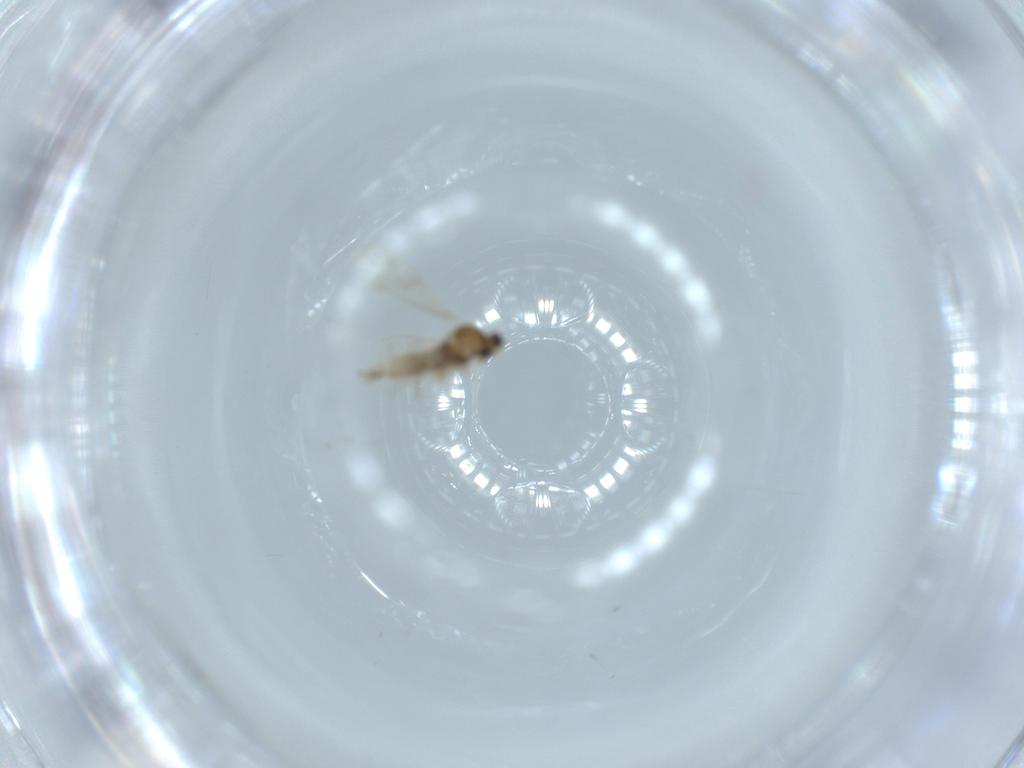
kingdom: Animalia
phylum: Arthropoda
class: Insecta
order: Diptera
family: Cecidomyiidae
